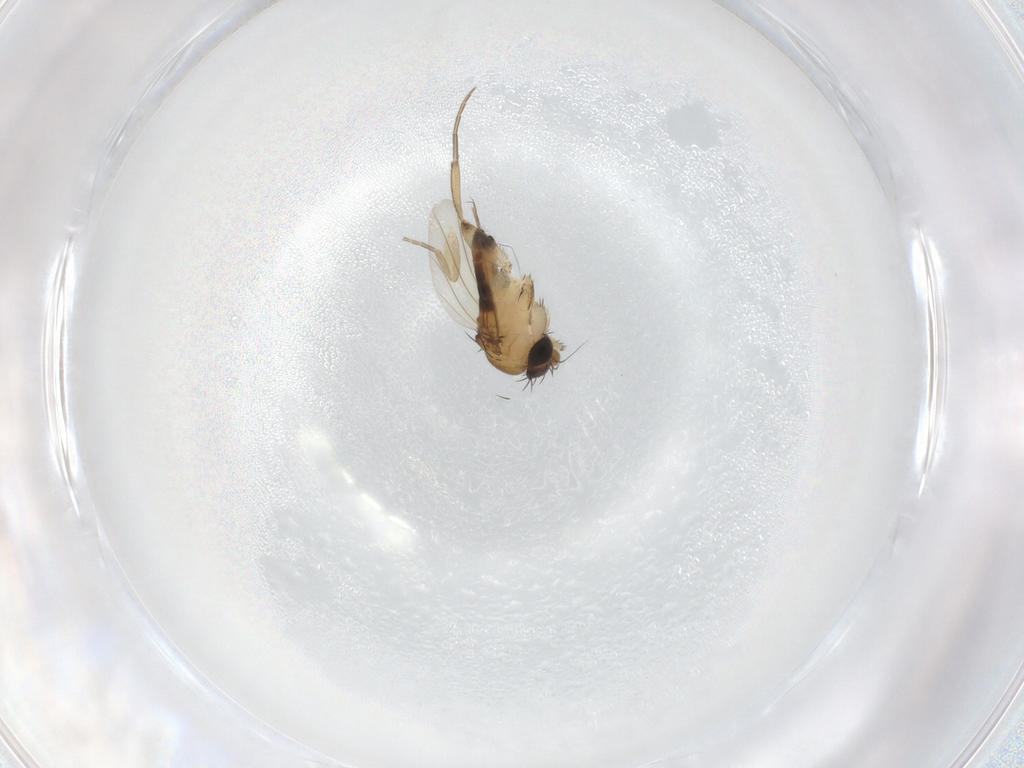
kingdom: Animalia
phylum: Arthropoda
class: Insecta
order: Diptera
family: Phoridae
